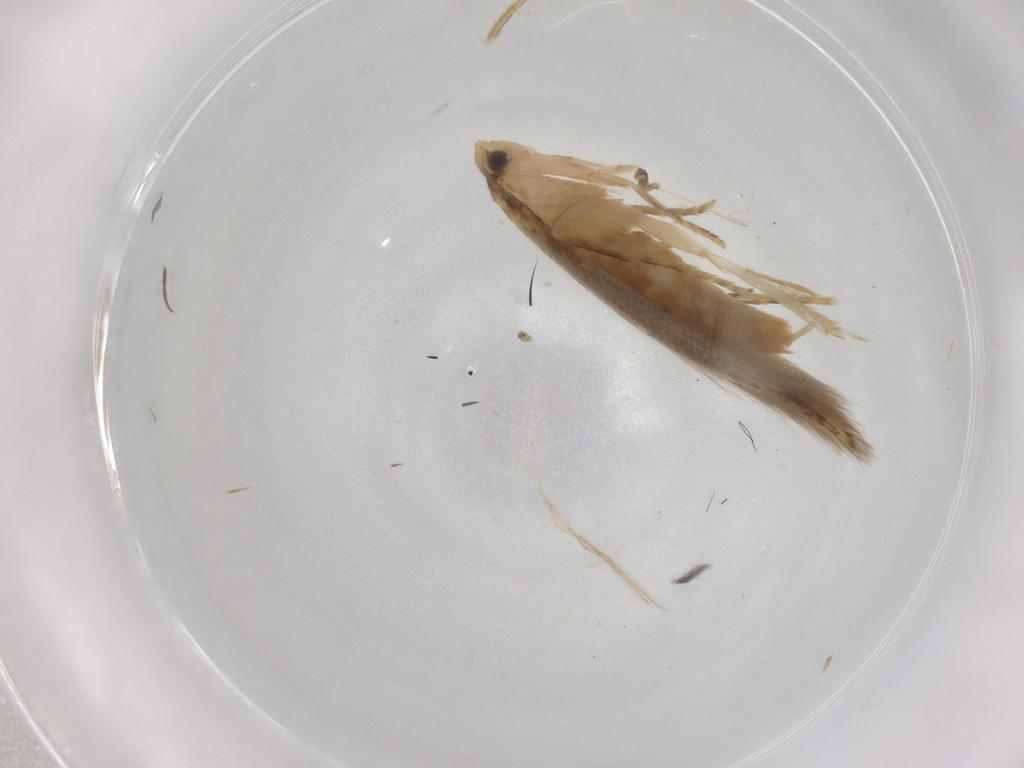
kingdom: Animalia
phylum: Arthropoda
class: Insecta
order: Lepidoptera
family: Tineidae
